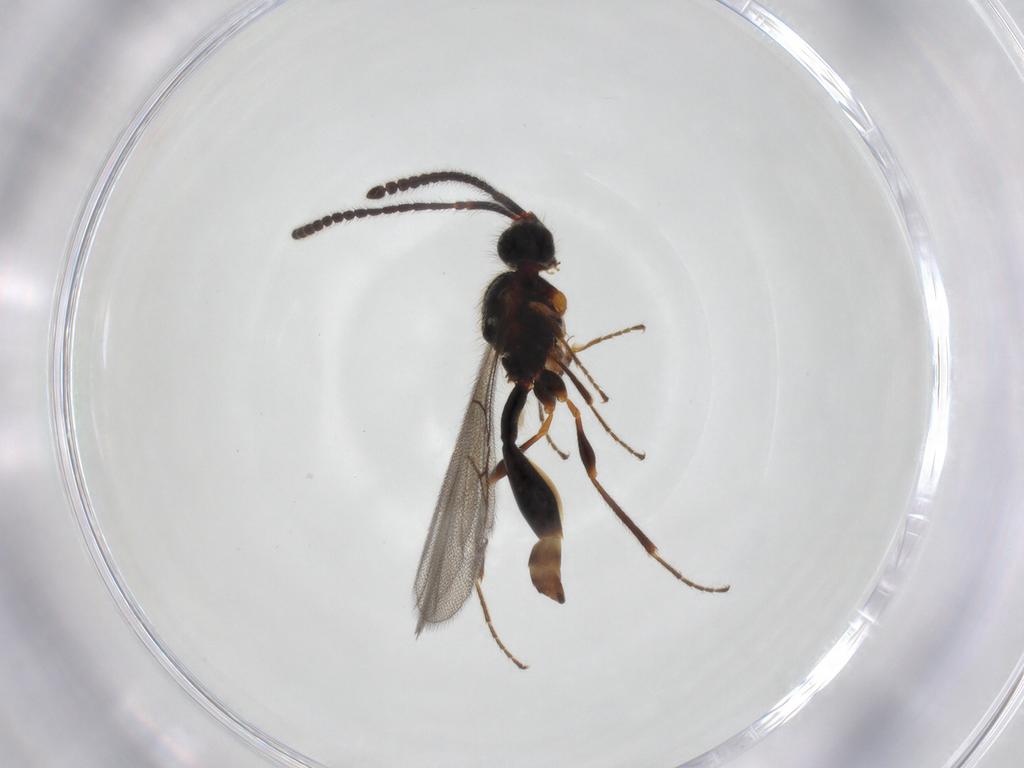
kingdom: Animalia
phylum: Arthropoda
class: Insecta
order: Hymenoptera
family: Diapriidae
